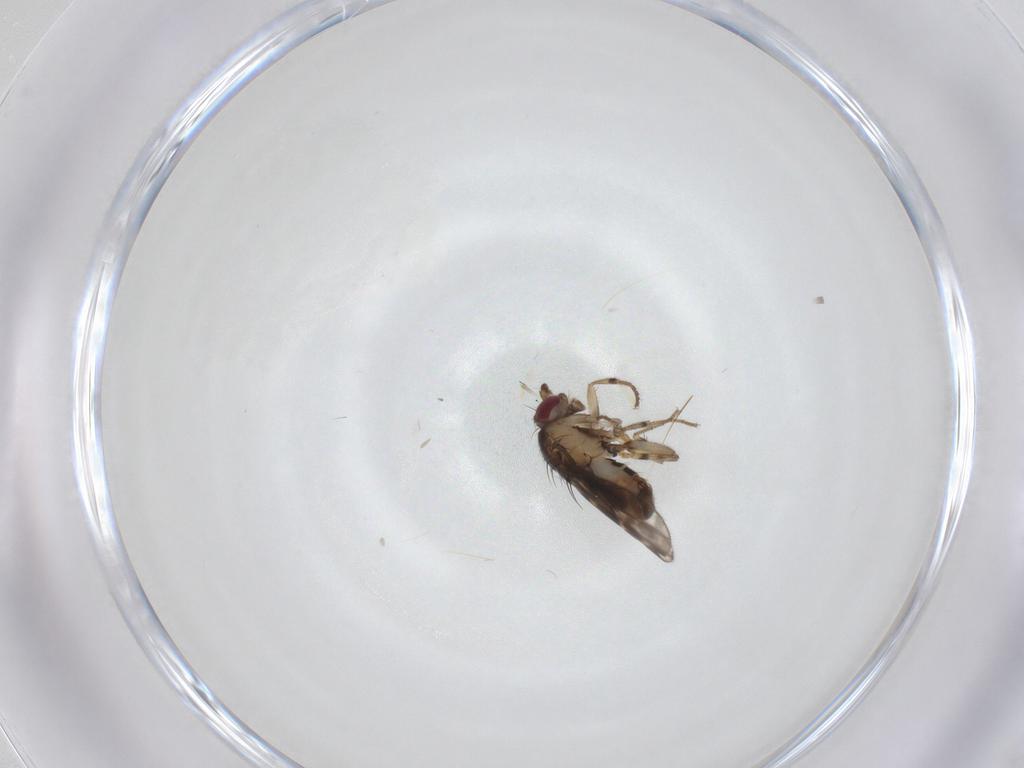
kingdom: Animalia
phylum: Arthropoda
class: Insecta
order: Diptera
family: Sphaeroceridae
